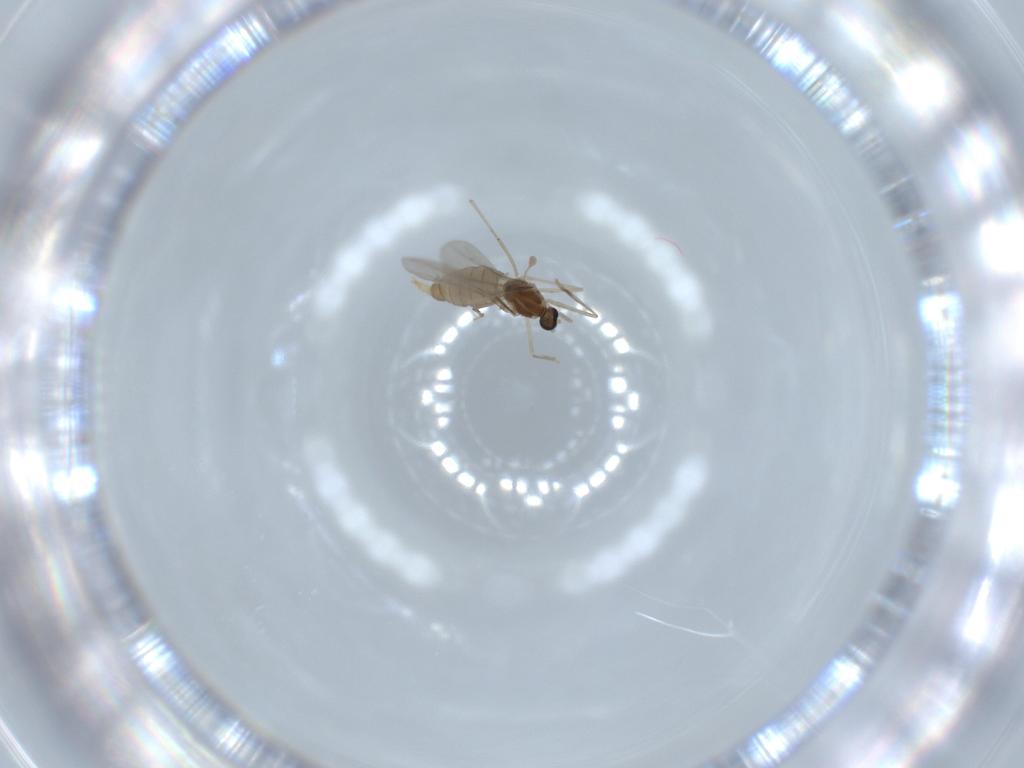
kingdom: Animalia
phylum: Arthropoda
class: Insecta
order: Diptera
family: Cecidomyiidae
